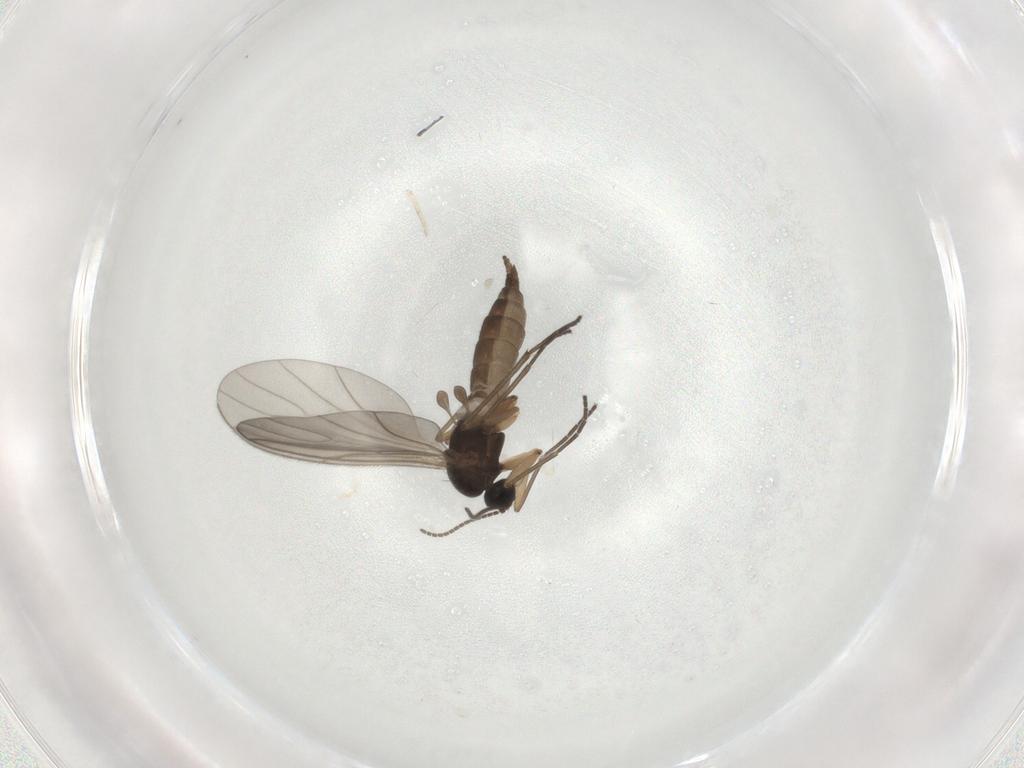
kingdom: Animalia
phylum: Arthropoda
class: Insecta
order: Diptera
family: Sciaridae
